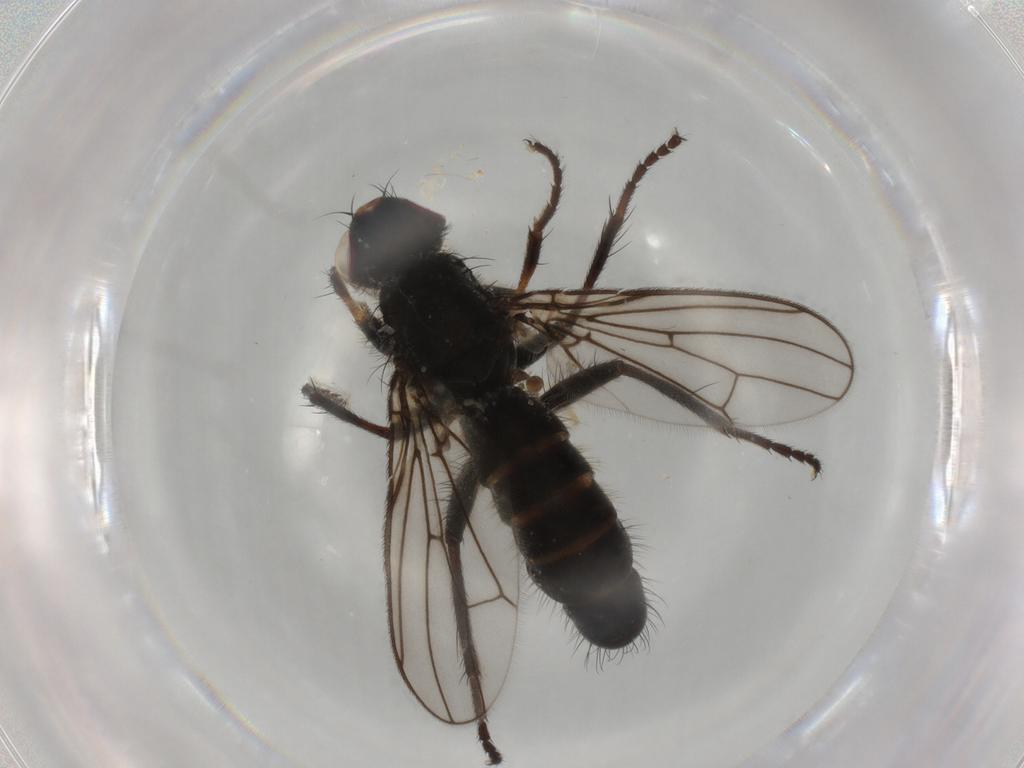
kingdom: Animalia
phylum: Arthropoda
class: Insecta
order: Diptera
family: Scathophagidae
